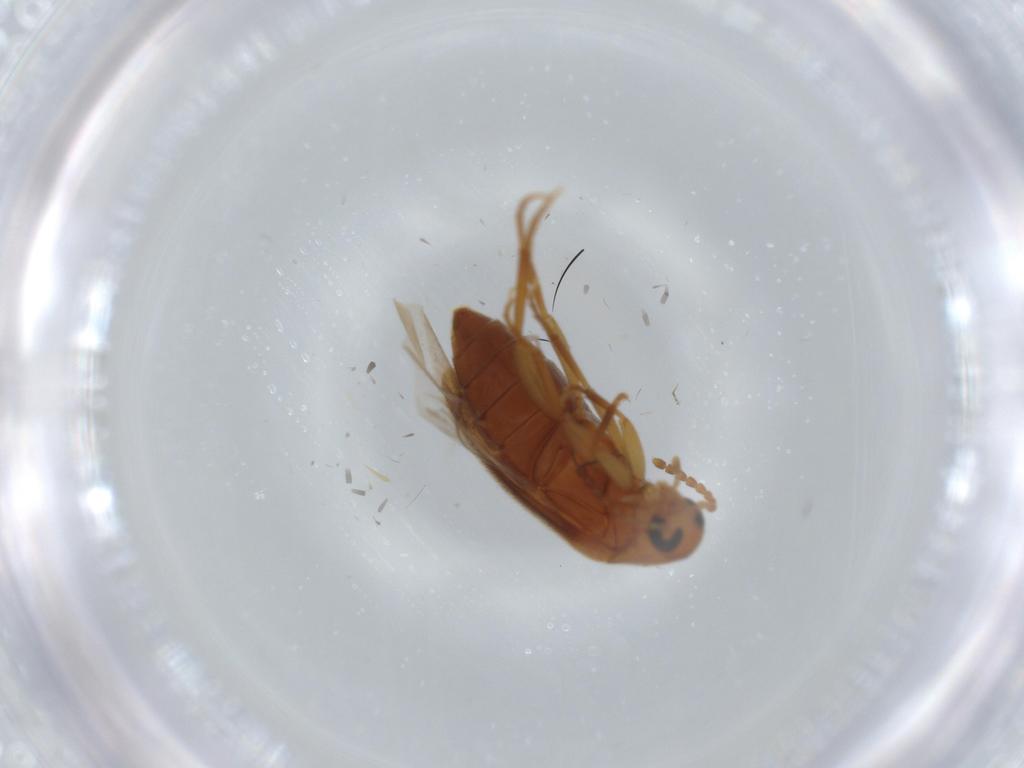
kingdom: Animalia
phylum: Arthropoda
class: Insecta
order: Coleoptera
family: Scraptiidae
